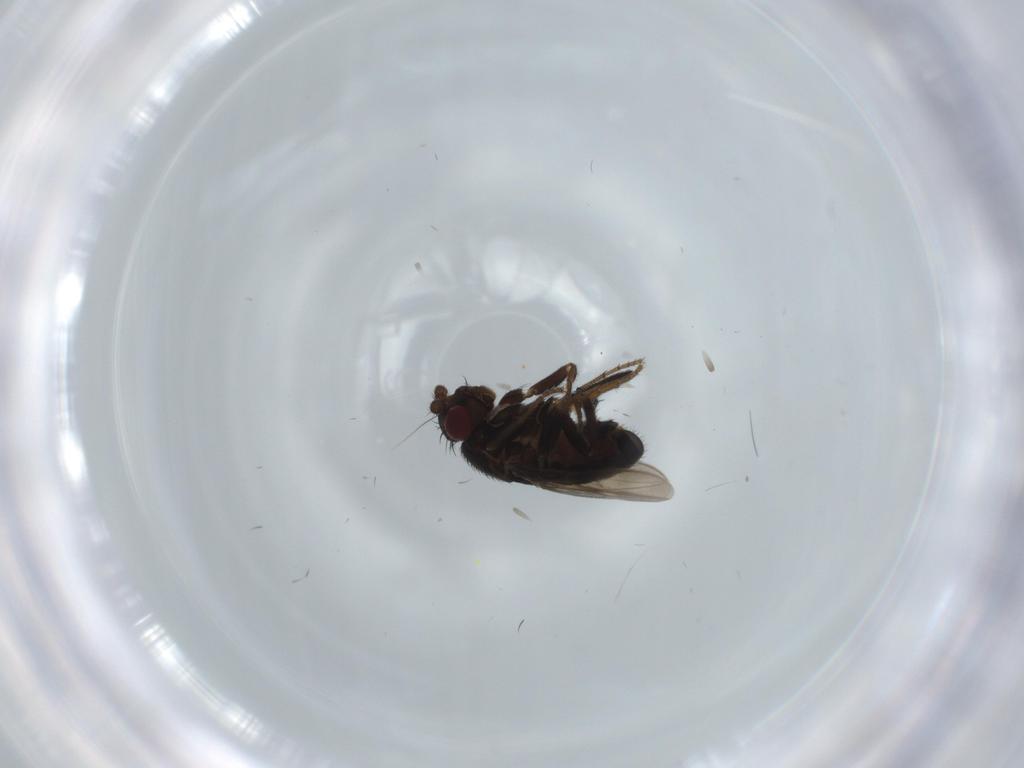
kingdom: Animalia
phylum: Arthropoda
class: Insecta
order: Diptera
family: Sphaeroceridae
